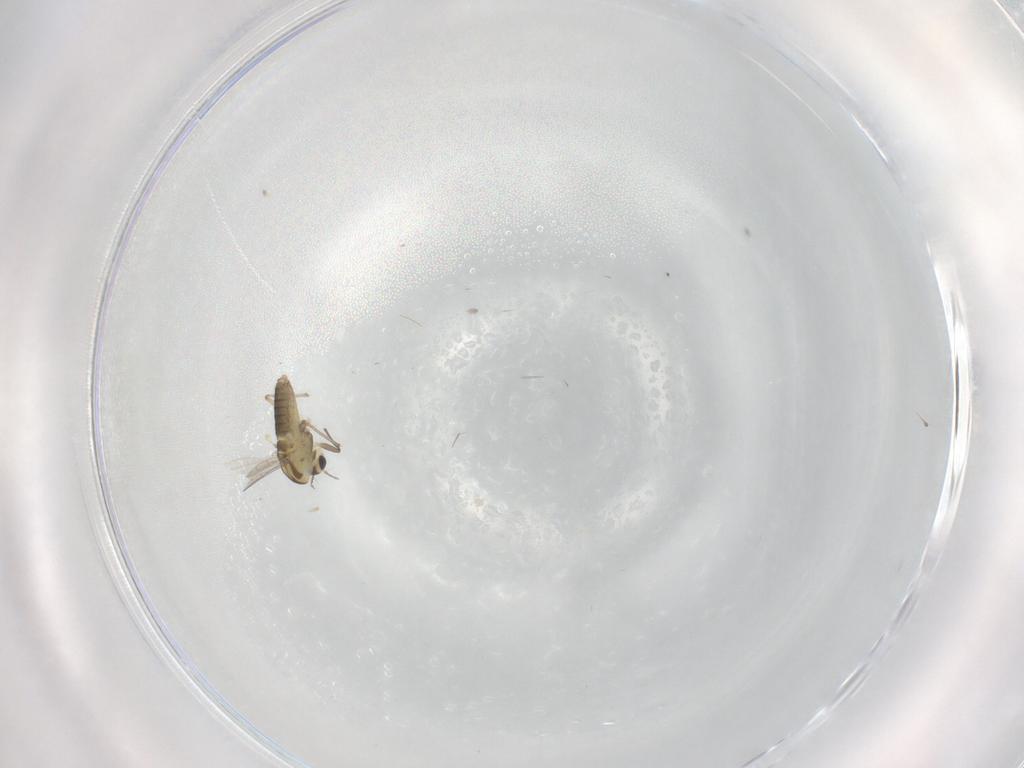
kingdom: Animalia
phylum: Arthropoda
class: Insecta
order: Diptera
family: Chironomidae
